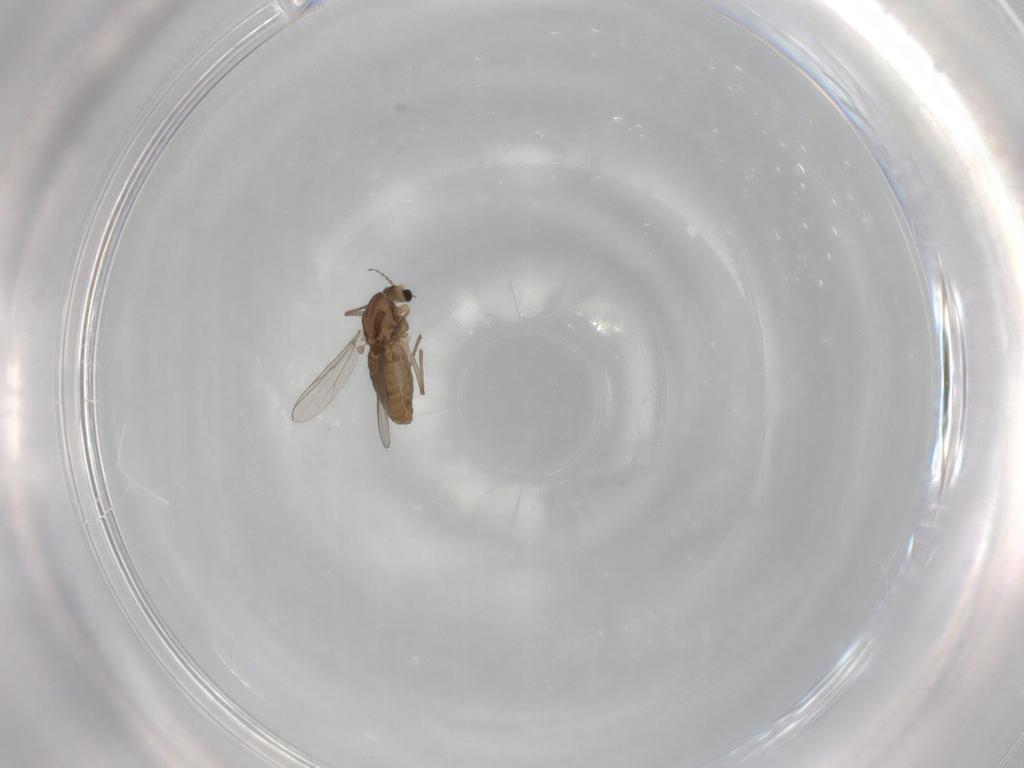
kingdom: Animalia
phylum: Arthropoda
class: Insecta
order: Diptera
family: Chironomidae
